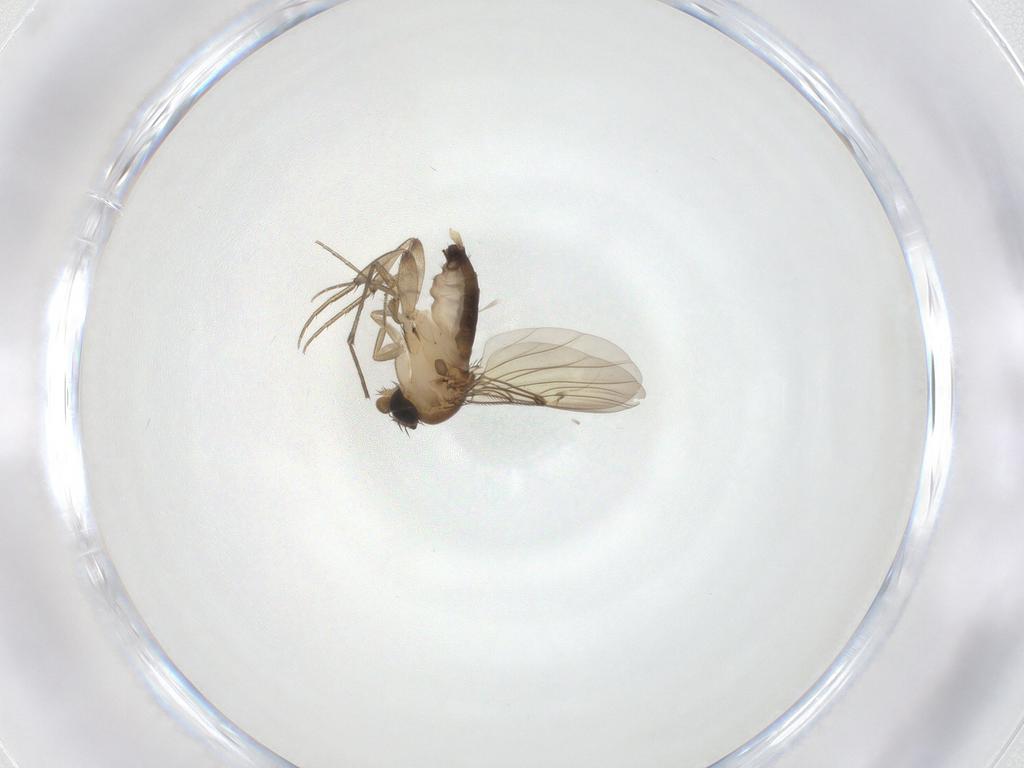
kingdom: Animalia
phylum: Arthropoda
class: Insecta
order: Diptera
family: Phoridae
